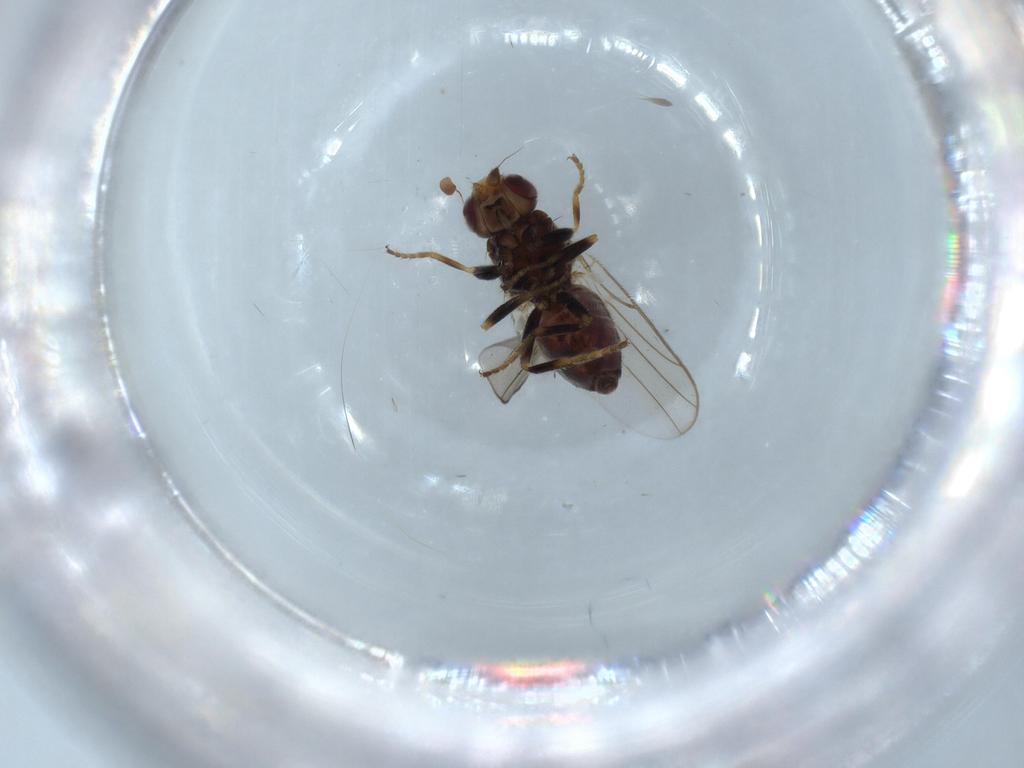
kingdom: Animalia
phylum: Arthropoda
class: Insecta
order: Diptera
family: Chloropidae
